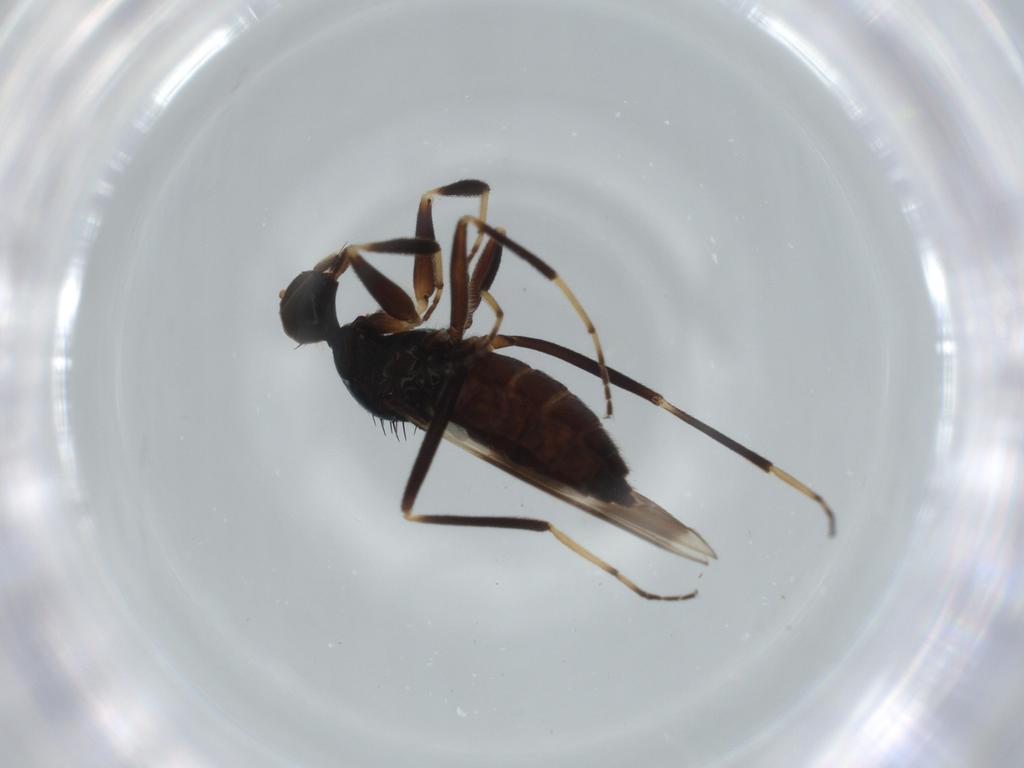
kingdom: Animalia
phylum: Arthropoda
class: Insecta
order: Diptera
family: Hybotidae
